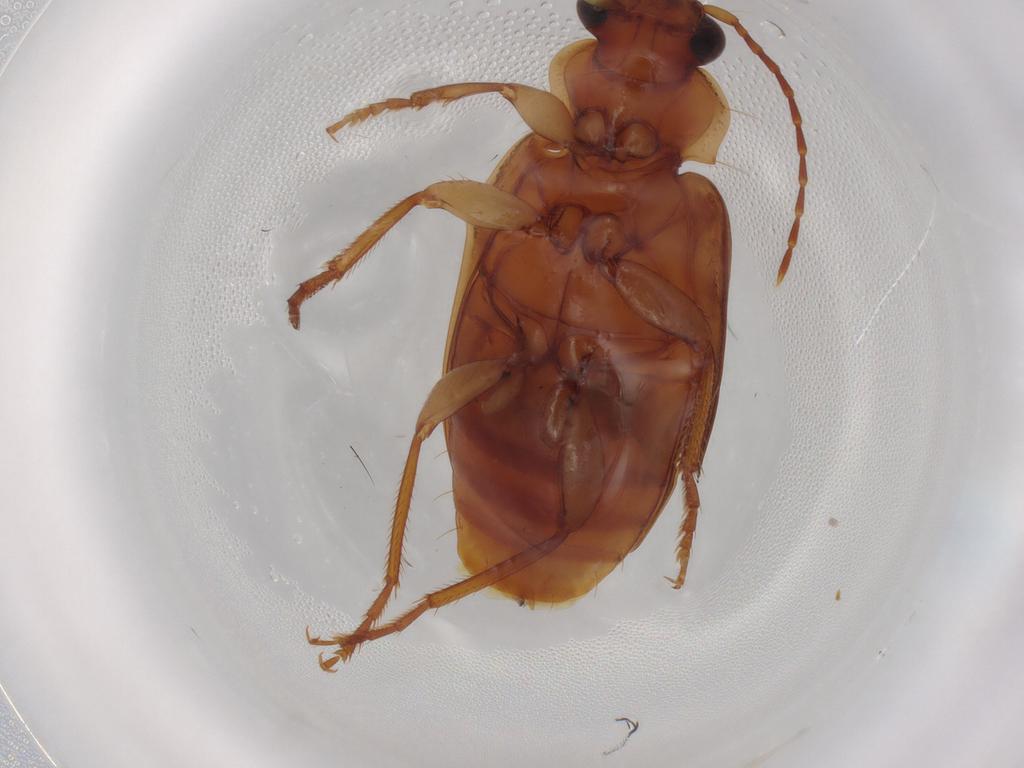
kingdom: Animalia
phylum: Arthropoda
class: Insecta
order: Coleoptera
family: Carabidae
